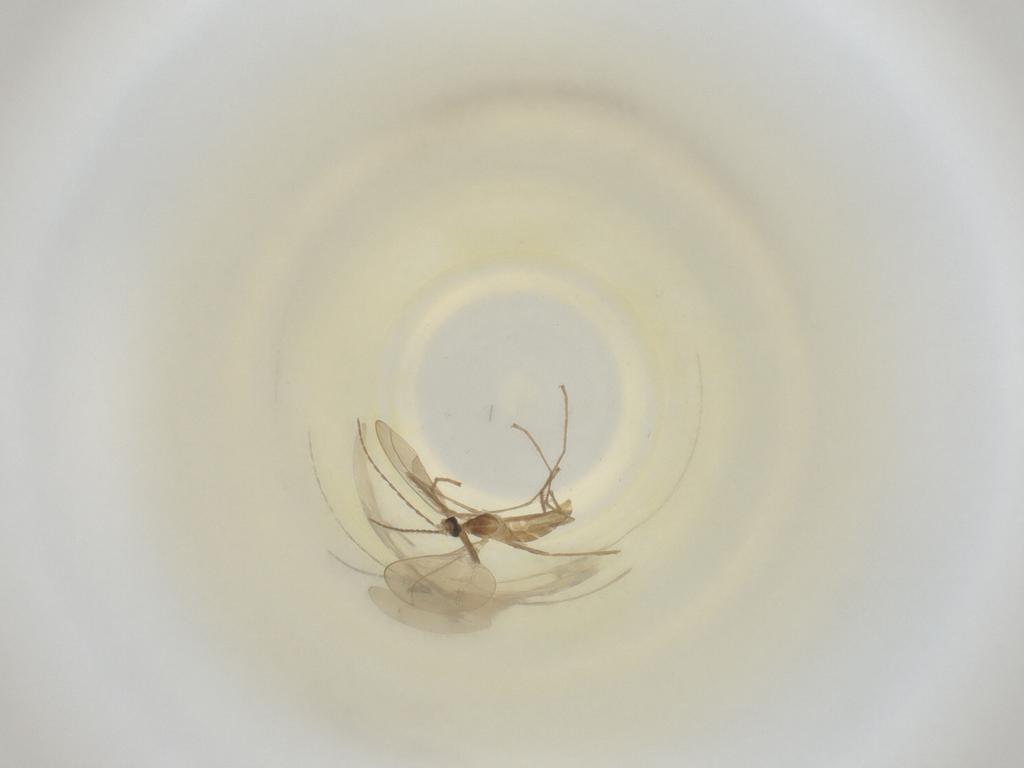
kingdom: Animalia
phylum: Arthropoda
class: Insecta
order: Diptera
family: Cecidomyiidae
